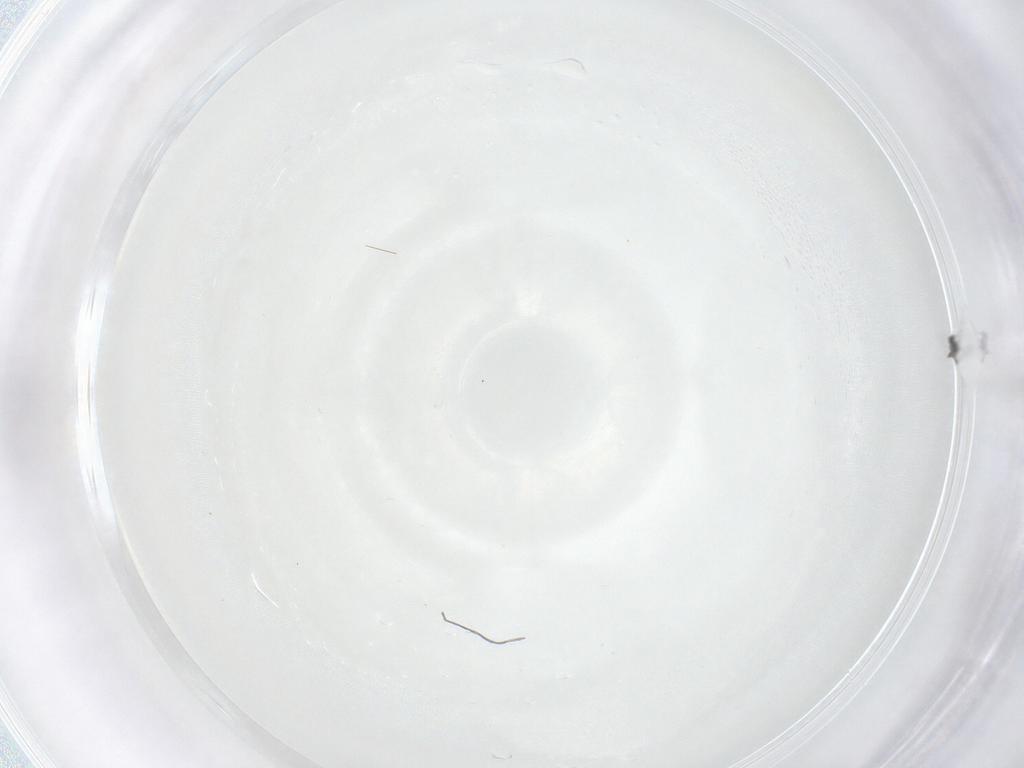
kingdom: Animalia
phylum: Arthropoda
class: Insecta
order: Hymenoptera
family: Mymaridae
